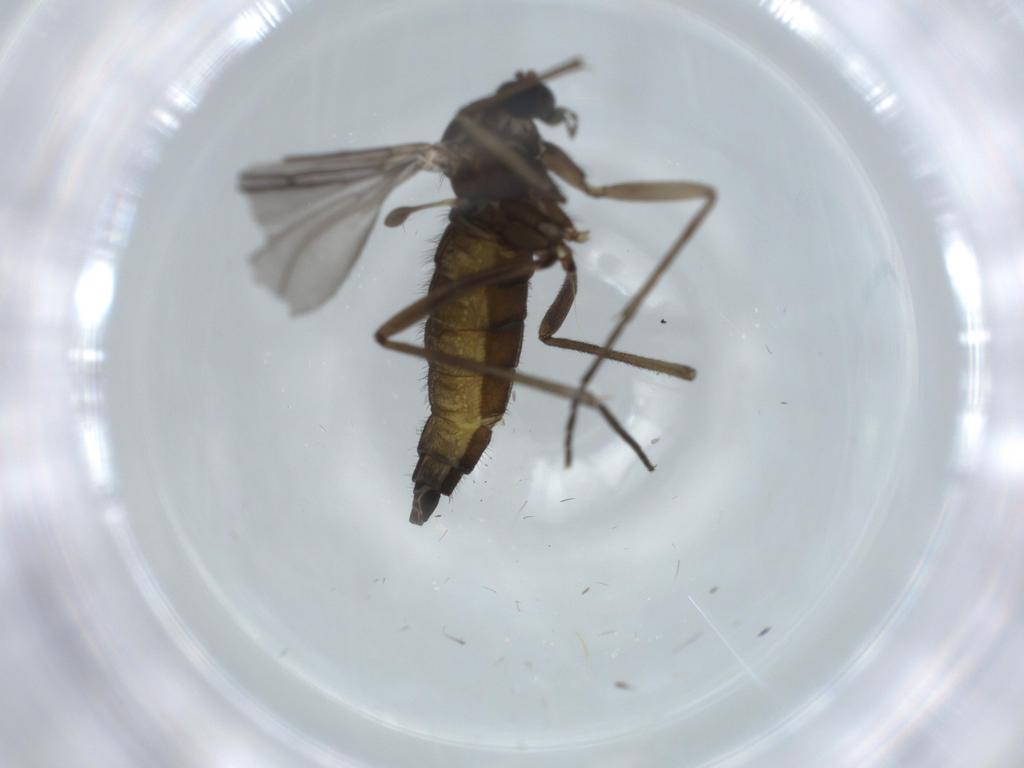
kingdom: Animalia
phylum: Arthropoda
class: Insecta
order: Diptera
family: Sciaridae
